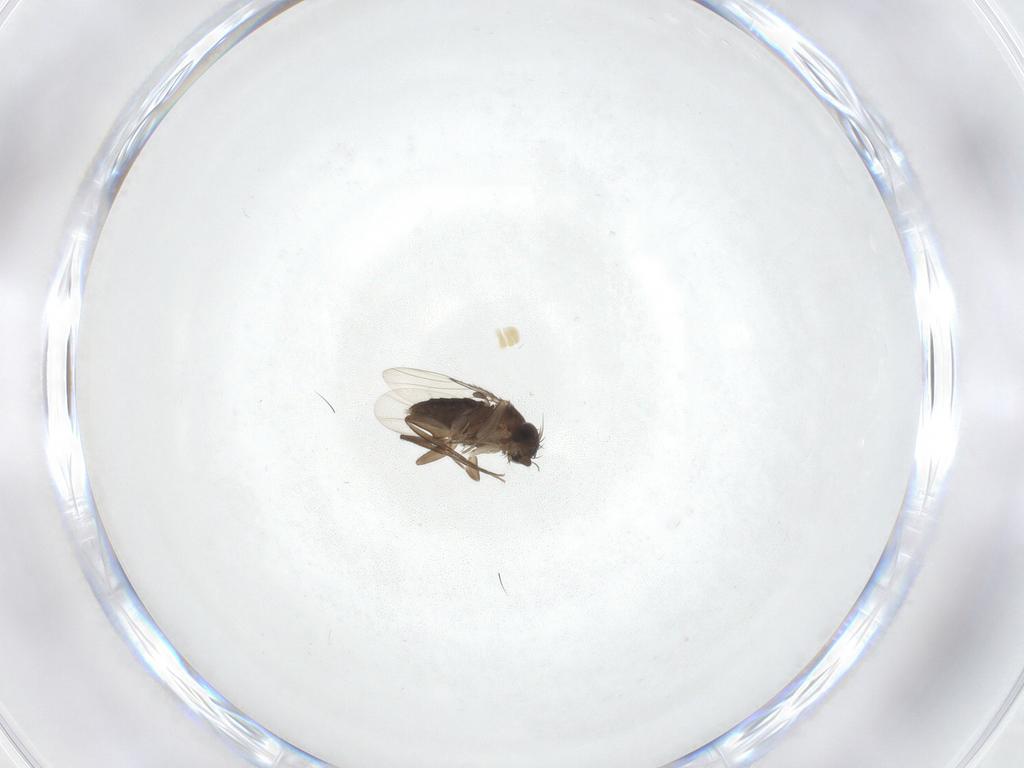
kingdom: Animalia
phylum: Arthropoda
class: Insecta
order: Diptera
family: Chironomidae
